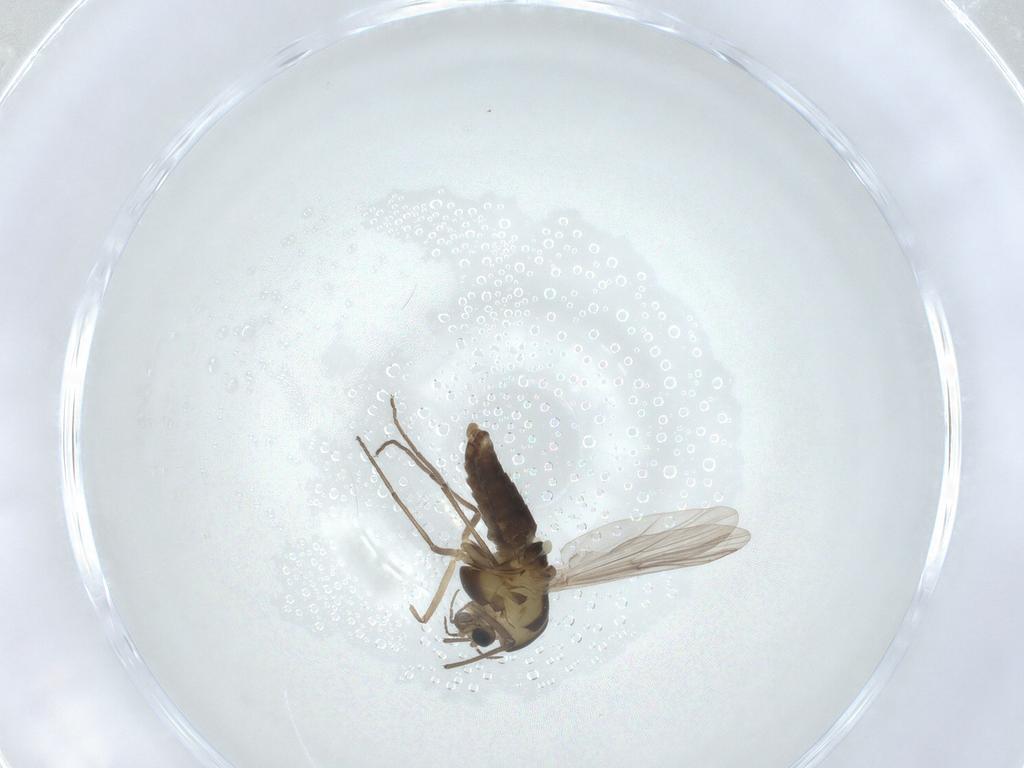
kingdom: Animalia
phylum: Arthropoda
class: Insecta
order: Diptera
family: Chironomidae
